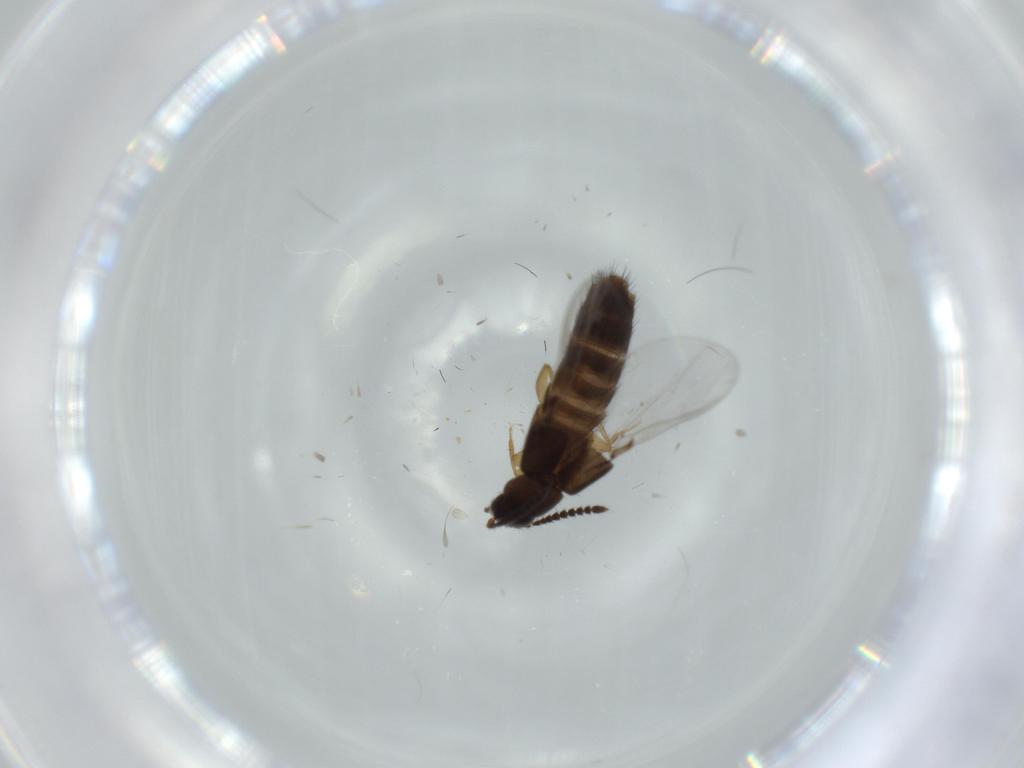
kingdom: Animalia
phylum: Arthropoda
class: Insecta
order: Coleoptera
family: Staphylinidae
